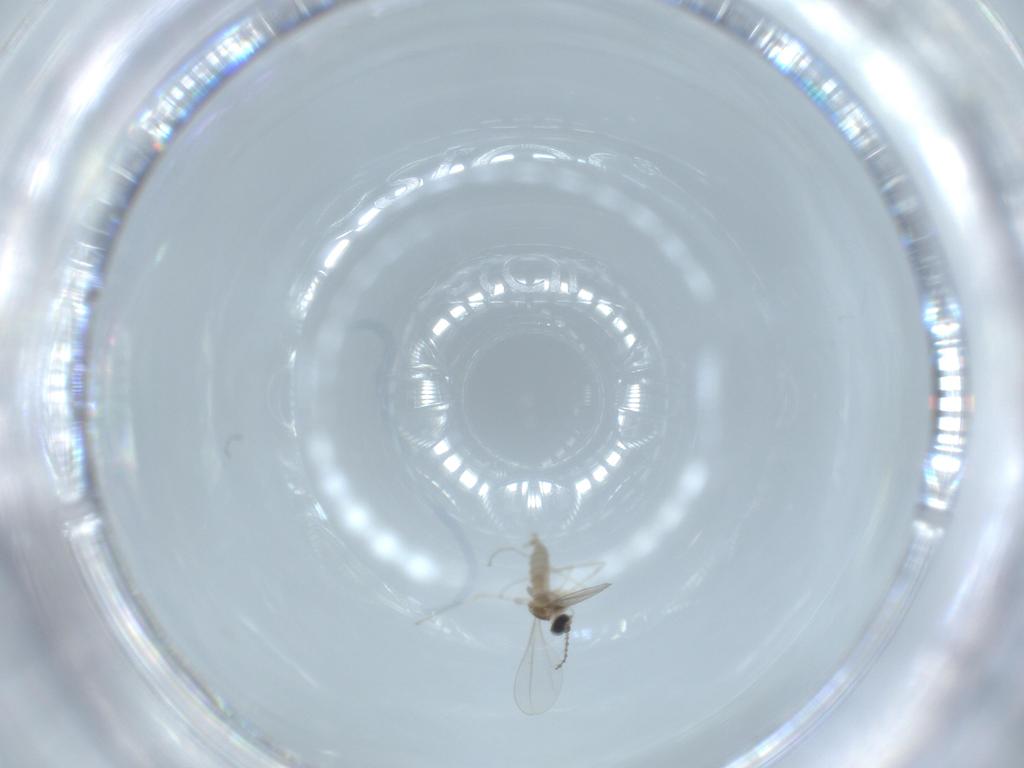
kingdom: Animalia
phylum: Arthropoda
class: Insecta
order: Diptera
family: Cecidomyiidae
